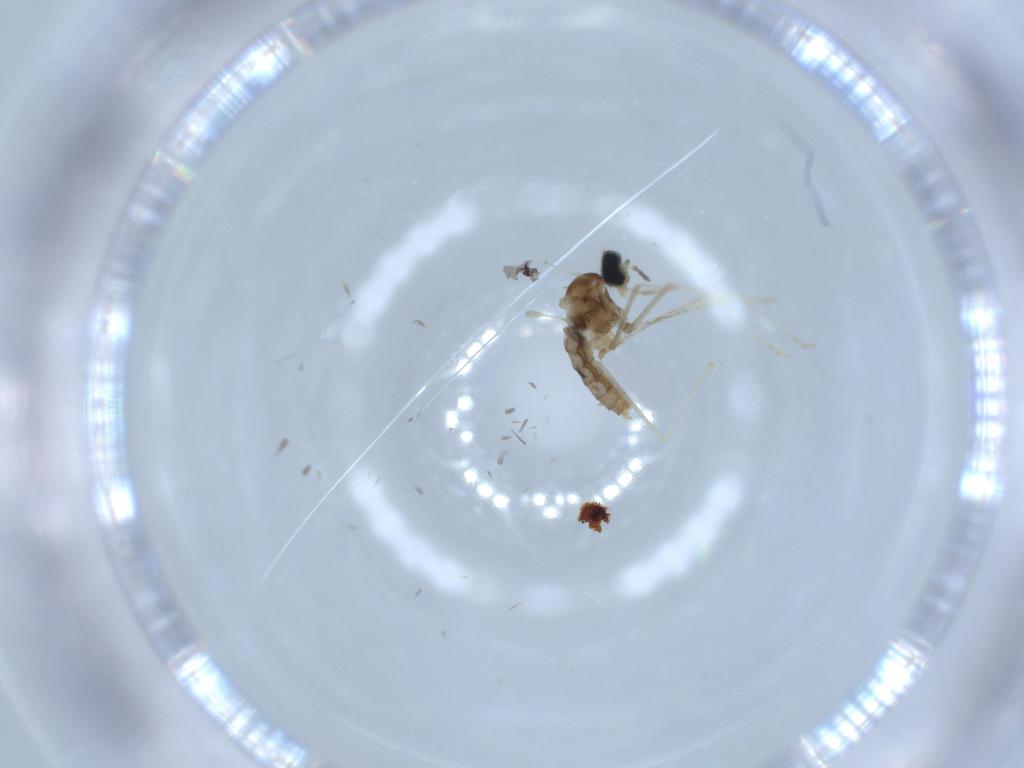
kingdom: Animalia
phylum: Arthropoda
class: Insecta
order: Diptera
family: Cecidomyiidae
